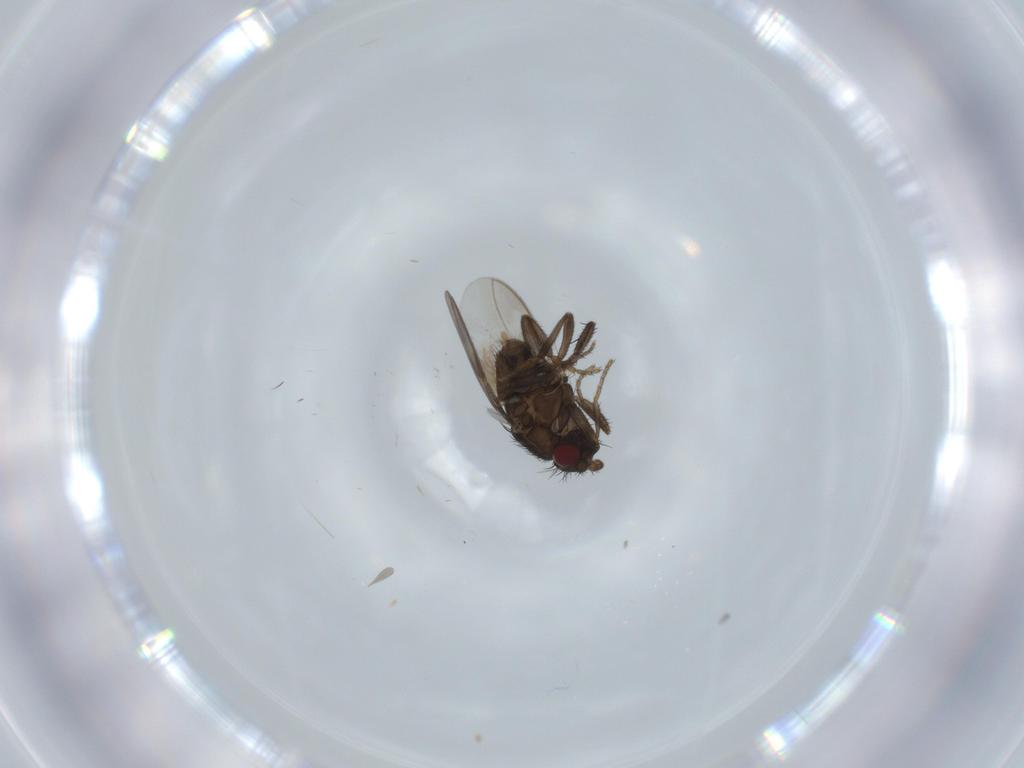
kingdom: Animalia
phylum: Arthropoda
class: Insecta
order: Diptera
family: Sphaeroceridae
